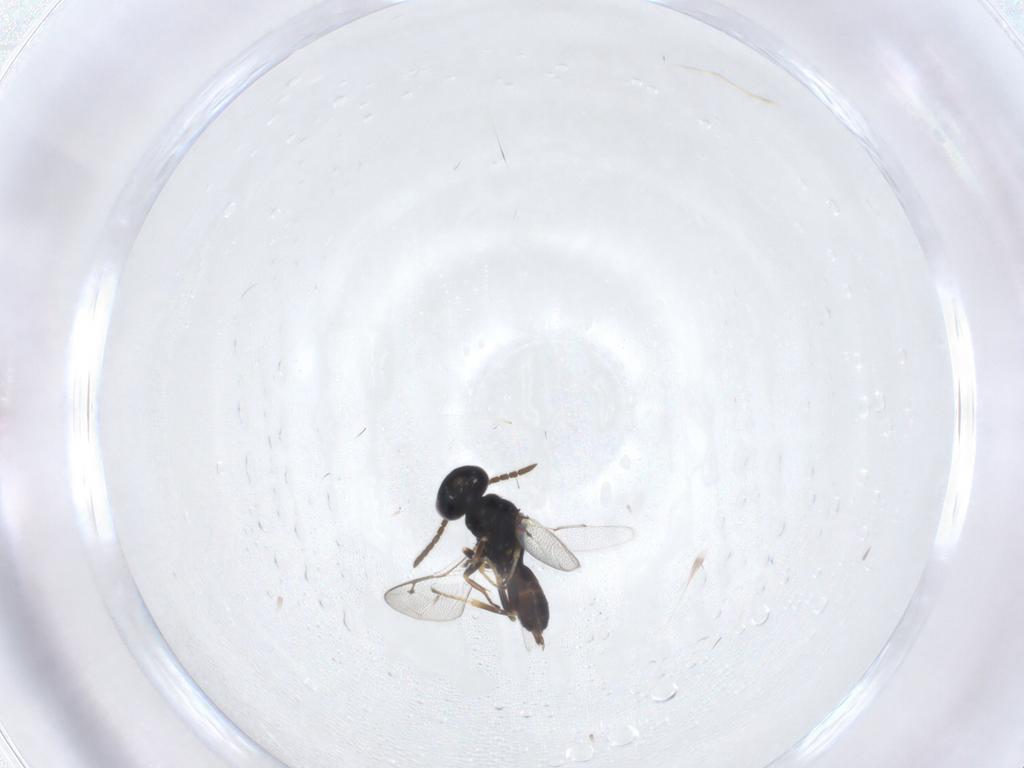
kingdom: Animalia
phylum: Arthropoda
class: Insecta
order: Hymenoptera
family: Pteromalidae
